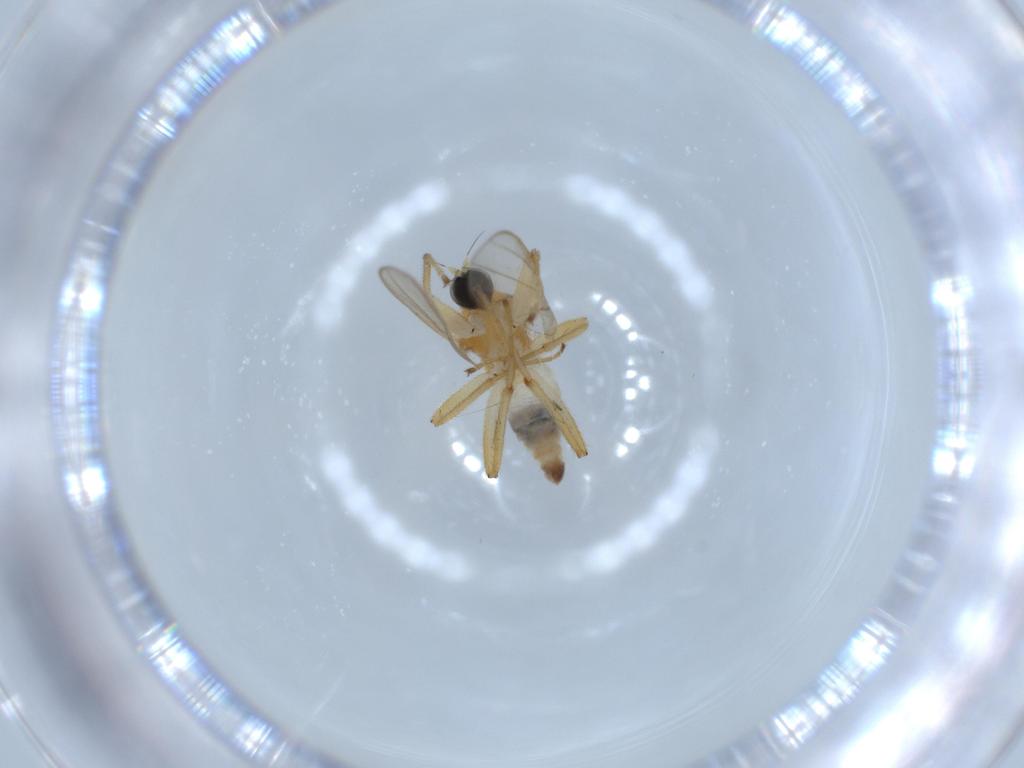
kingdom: Animalia
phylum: Arthropoda
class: Insecta
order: Diptera
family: Hybotidae
